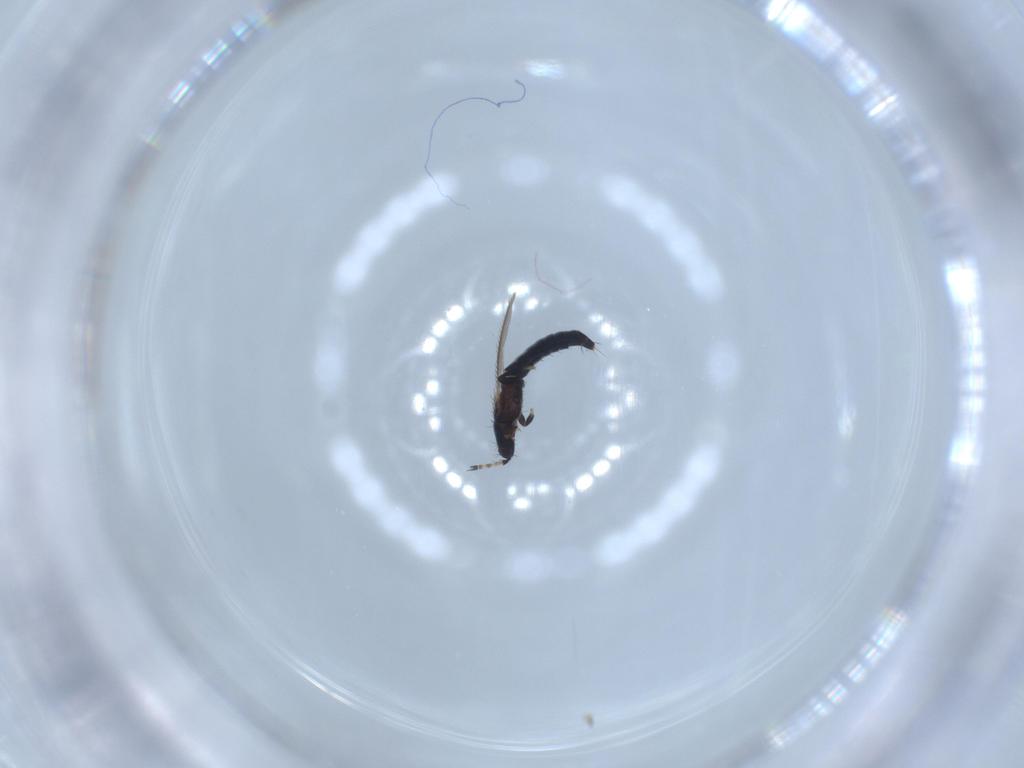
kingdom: Animalia
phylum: Arthropoda
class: Insecta
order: Thysanoptera
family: Thripidae
